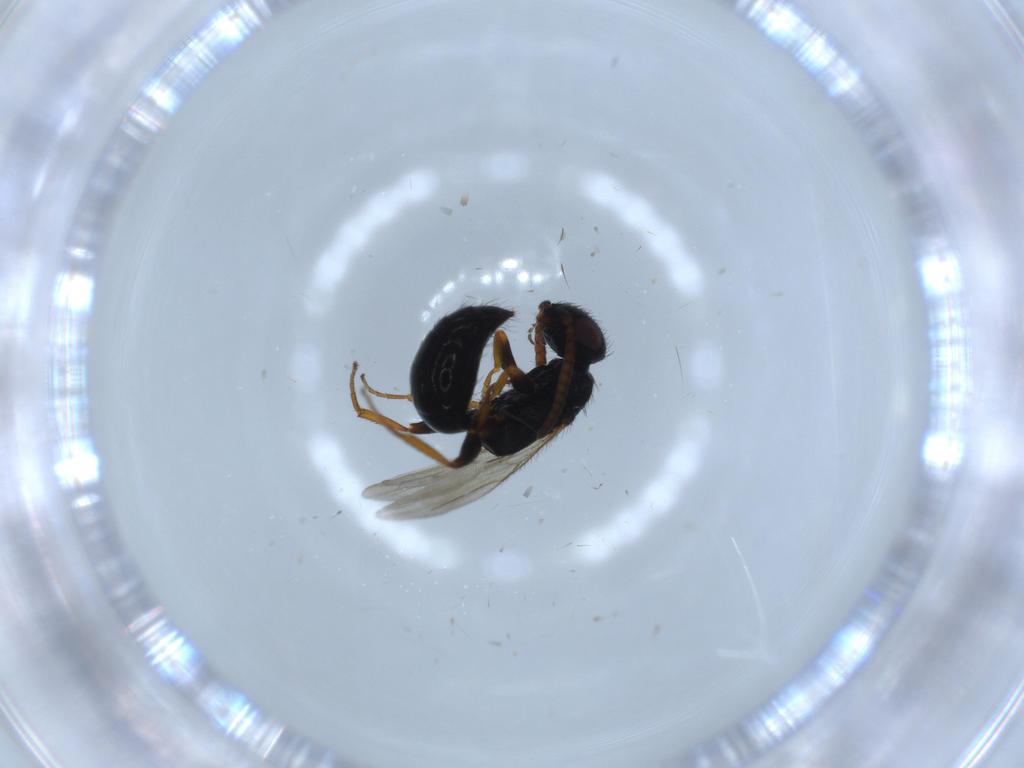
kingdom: Animalia
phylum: Arthropoda
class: Insecta
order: Hymenoptera
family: Bethylidae
